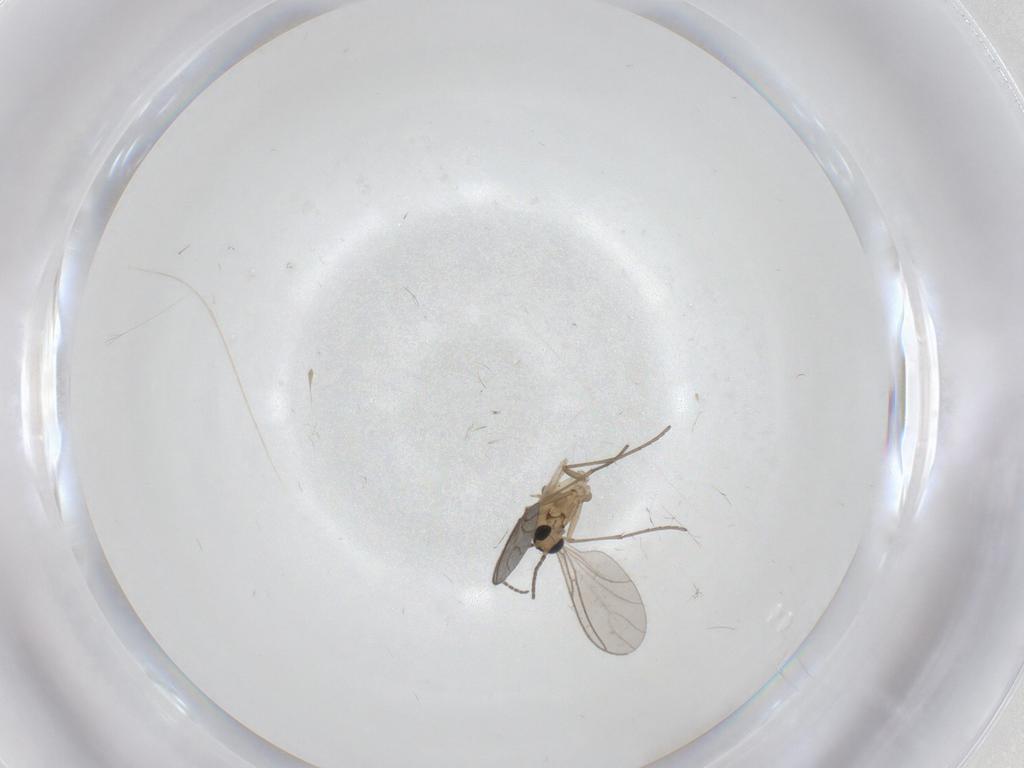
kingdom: Animalia
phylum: Arthropoda
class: Insecta
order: Diptera
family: Sciaridae
